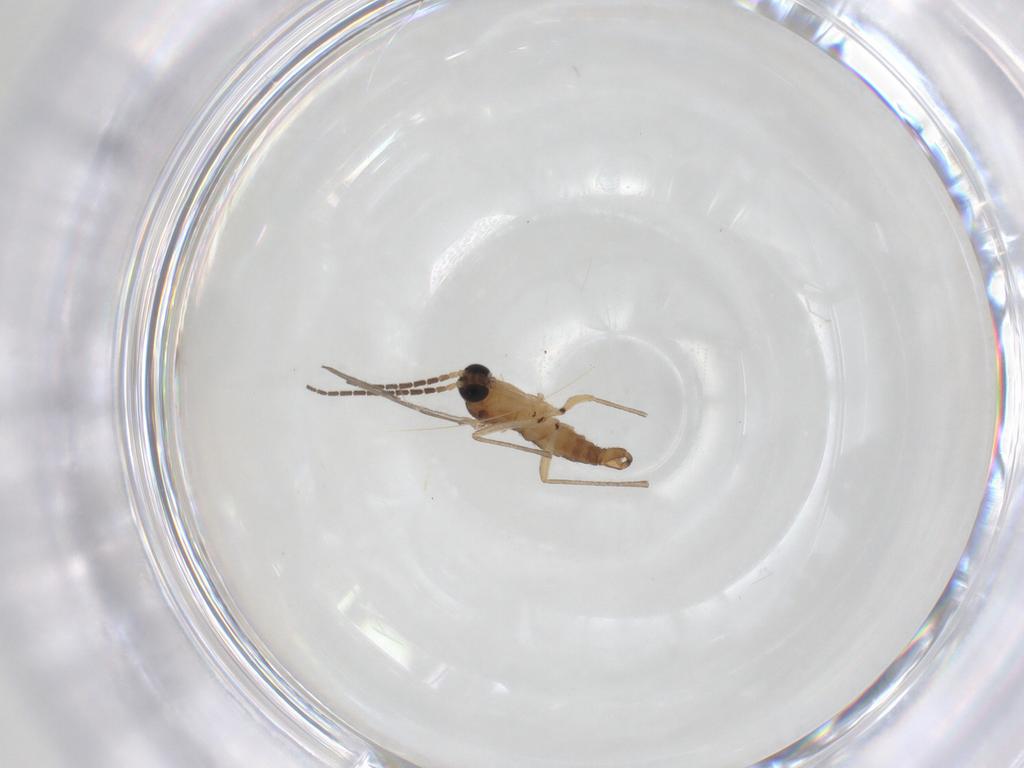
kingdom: Animalia
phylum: Arthropoda
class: Insecta
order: Diptera
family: Sciaridae
